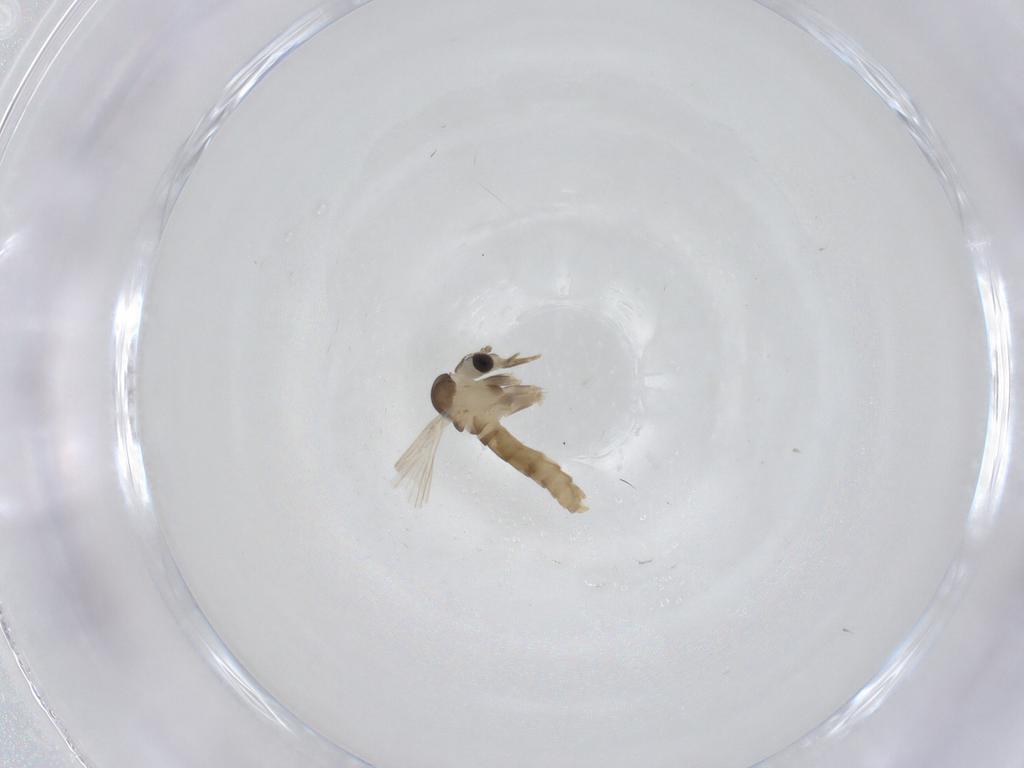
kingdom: Animalia
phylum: Arthropoda
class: Insecta
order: Diptera
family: Psychodidae
